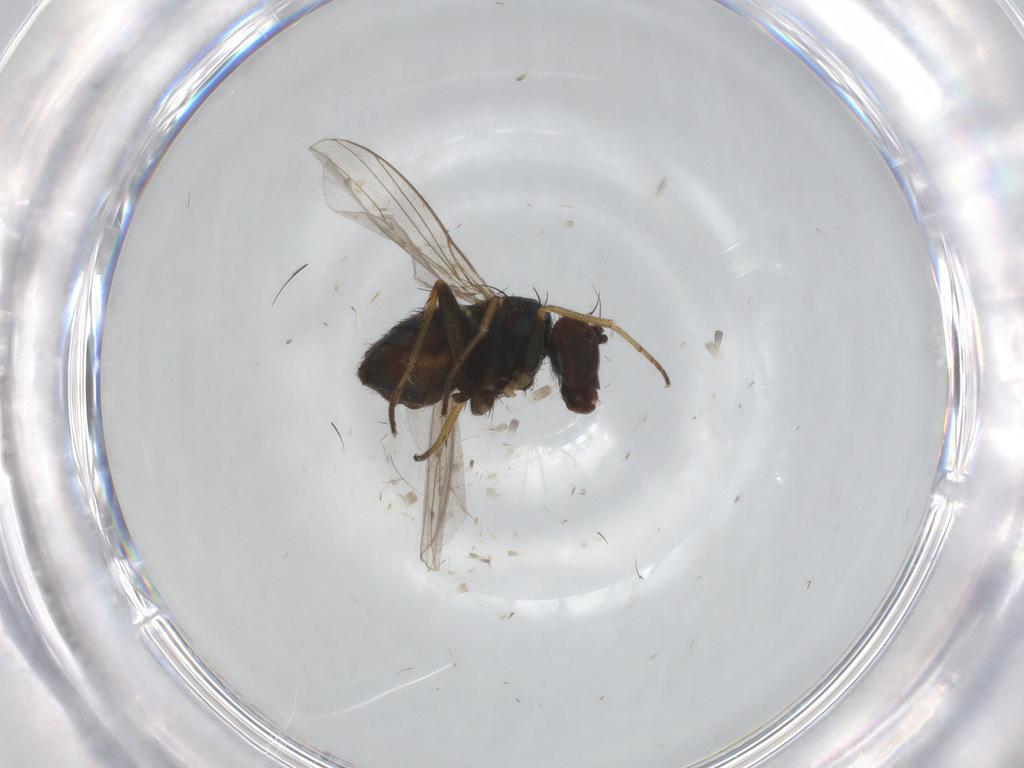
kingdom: Animalia
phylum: Arthropoda
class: Insecta
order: Diptera
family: Dolichopodidae
